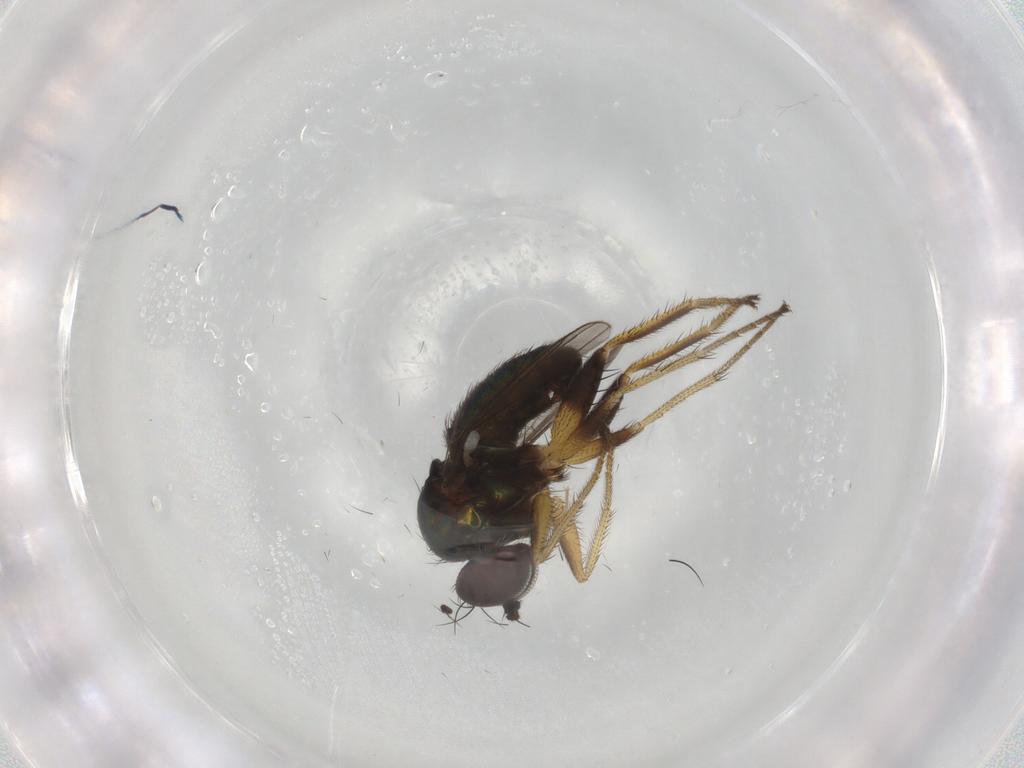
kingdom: Animalia
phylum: Arthropoda
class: Insecta
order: Diptera
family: Dolichopodidae
